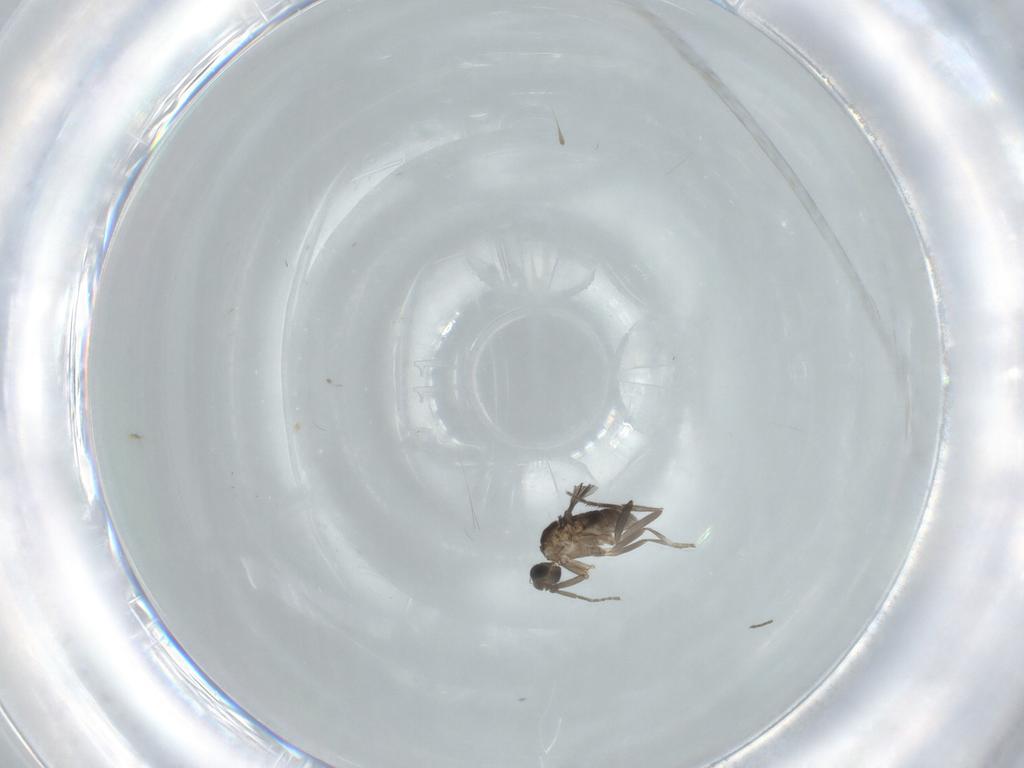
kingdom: Animalia
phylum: Arthropoda
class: Insecta
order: Diptera
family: Phoridae
